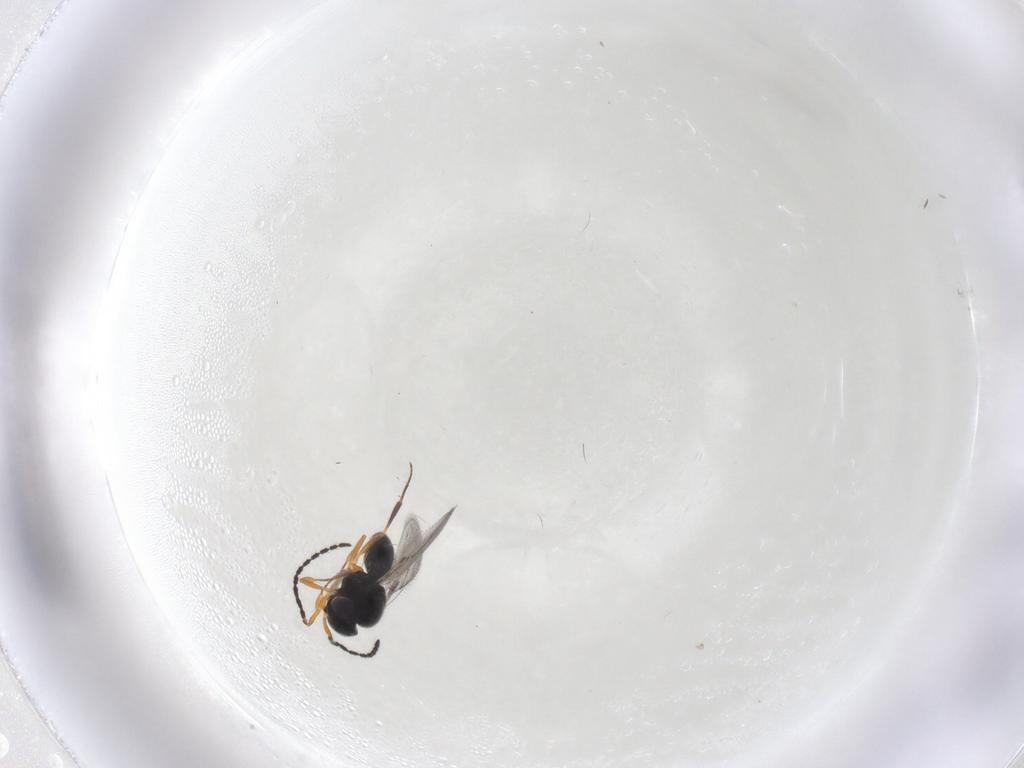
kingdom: Animalia
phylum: Arthropoda
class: Insecta
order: Hymenoptera
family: Scelionidae
